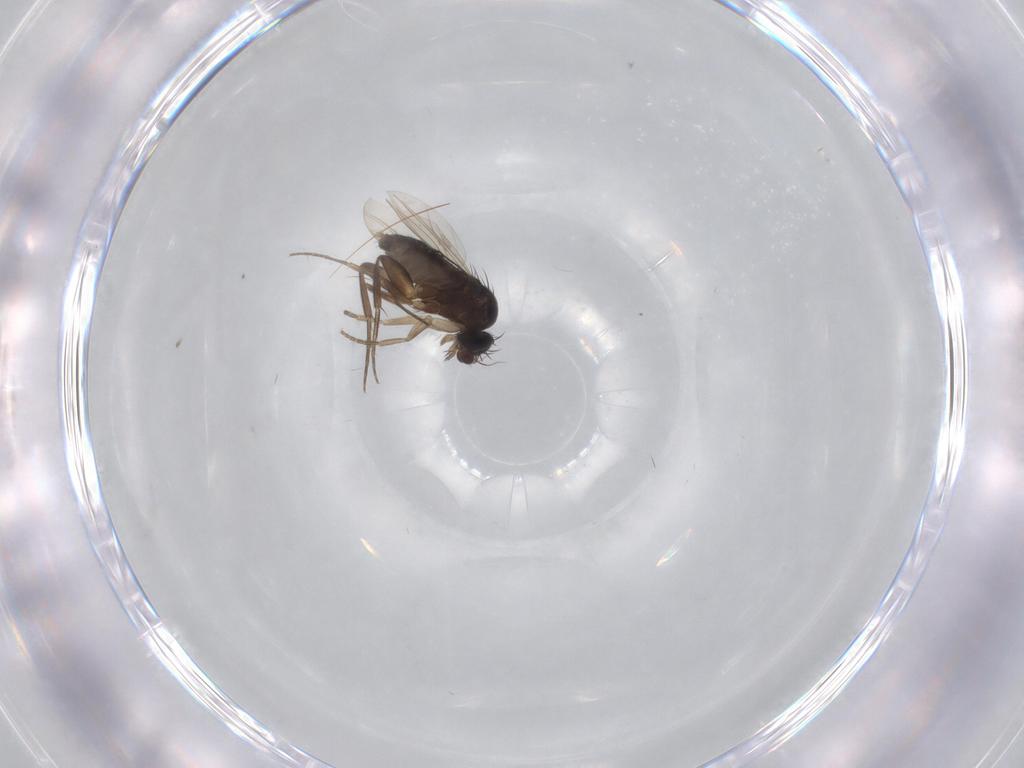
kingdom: Animalia
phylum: Arthropoda
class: Insecta
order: Diptera
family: Phoridae
